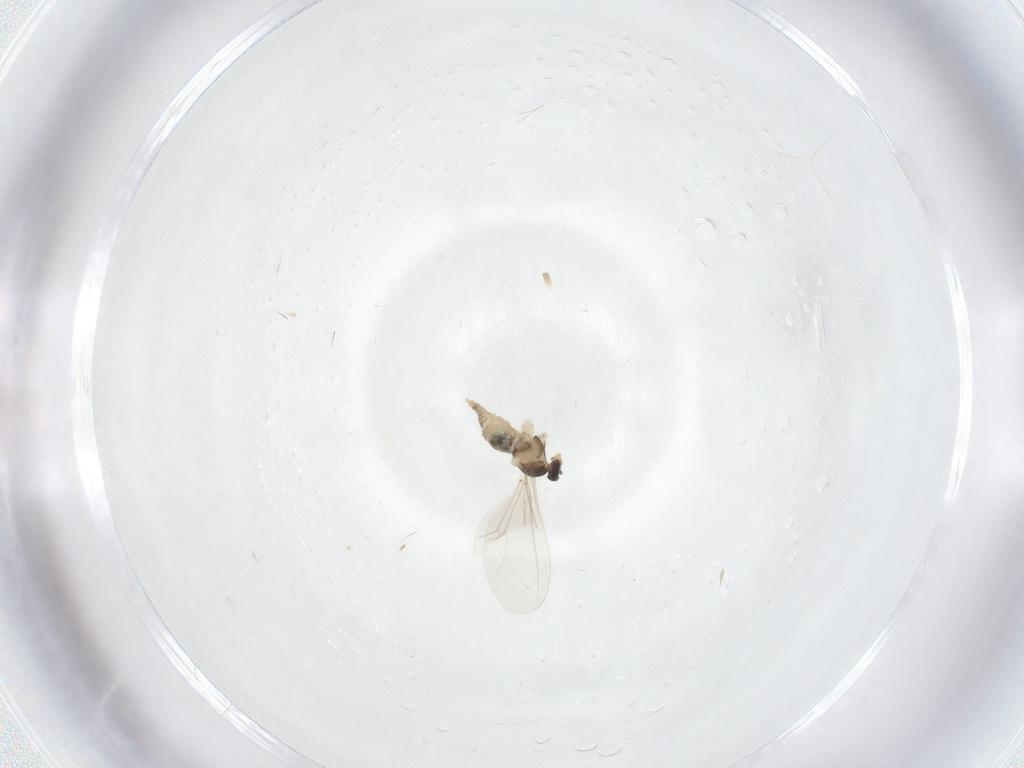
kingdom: Animalia
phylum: Arthropoda
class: Insecta
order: Diptera
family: Cecidomyiidae
